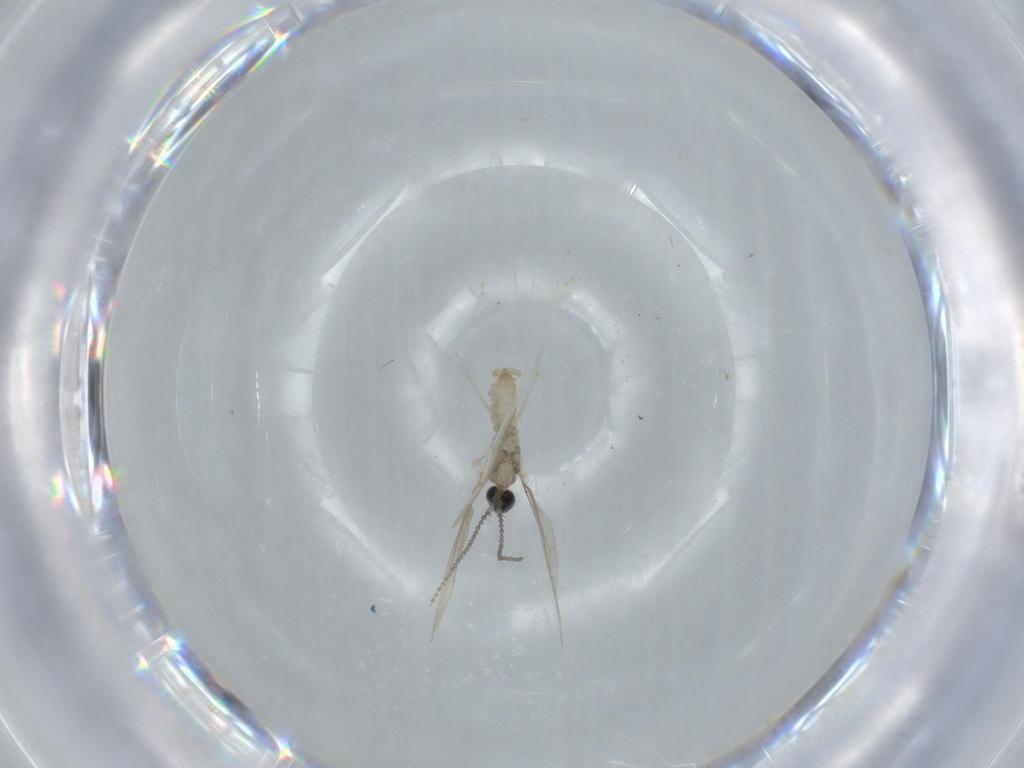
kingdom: Animalia
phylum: Arthropoda
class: Insecta
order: Diptera
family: Cecidomyiidae
